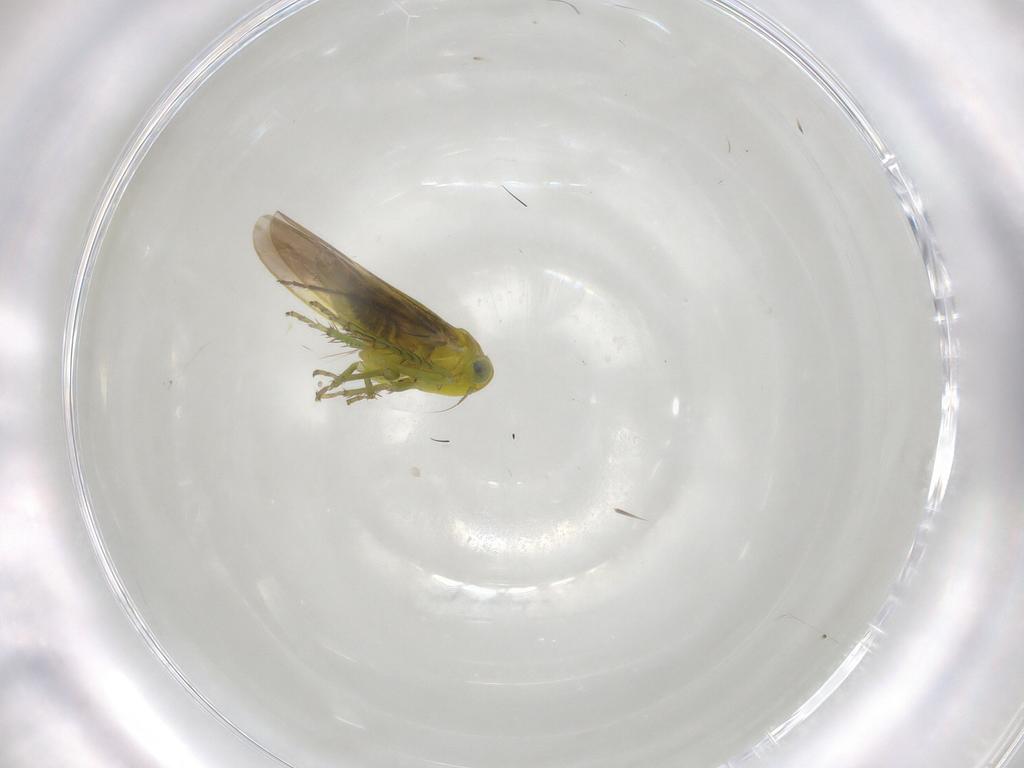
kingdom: Animalia
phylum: Arthropoda
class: Insecta
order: Hemiptera
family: Cicadellidae
